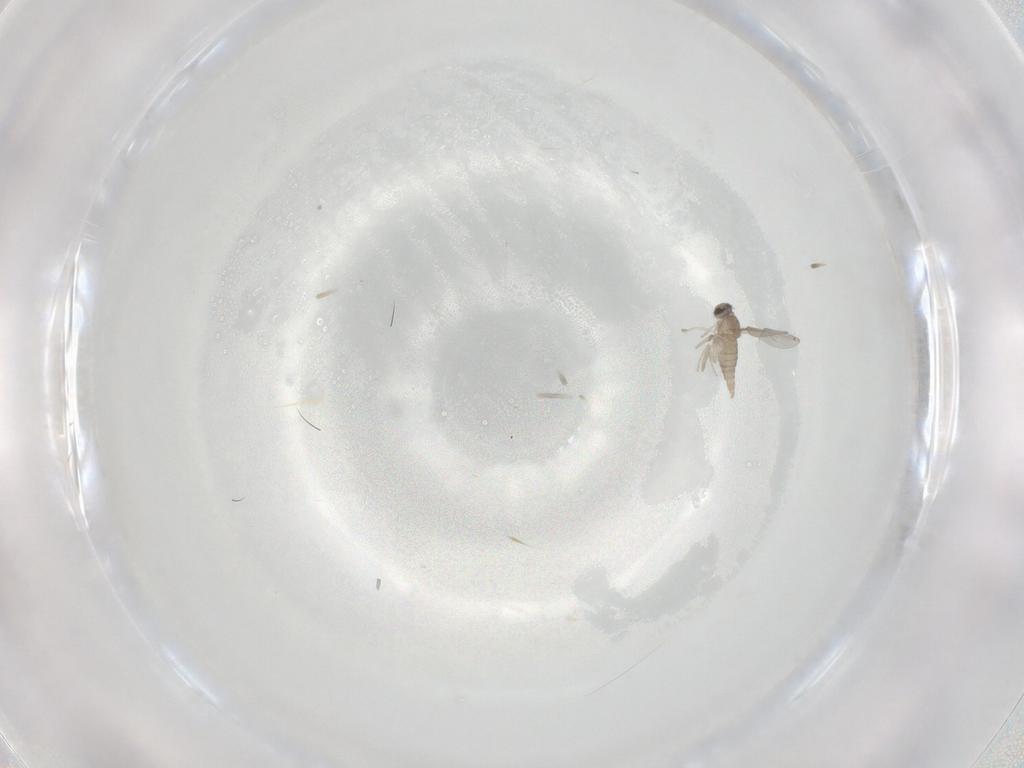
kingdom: Animalia
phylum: Arthropoda
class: Insecta
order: Diptera
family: Cecidomyiidae
